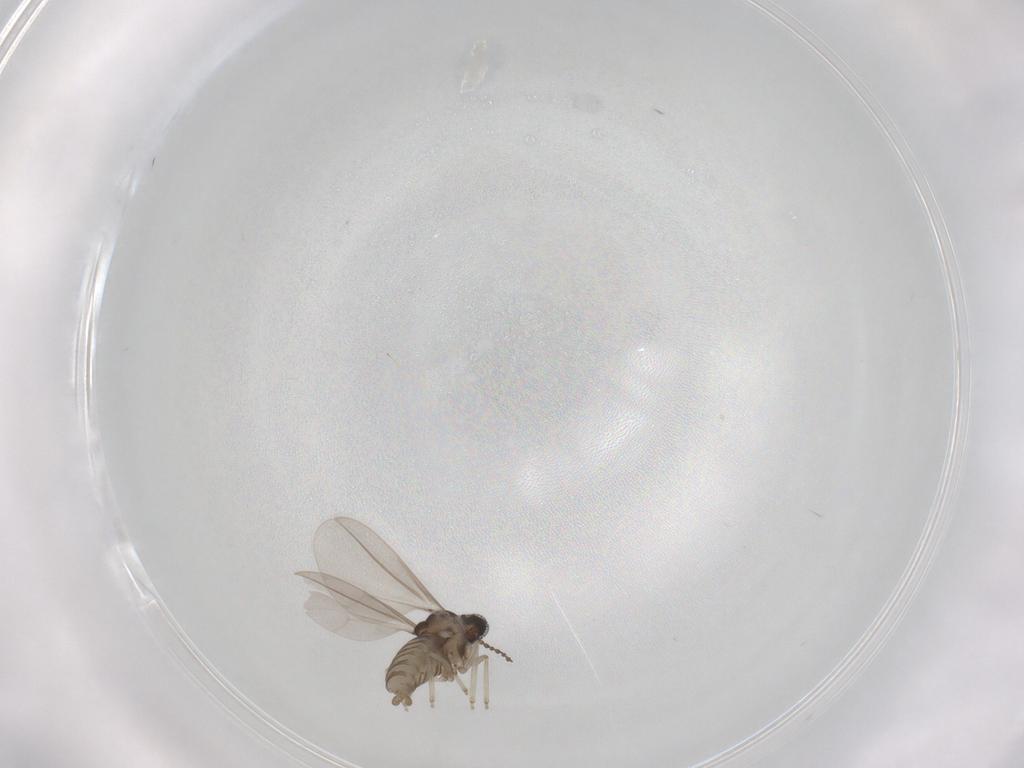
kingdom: Animalia
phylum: Arthropoda
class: Insecta
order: Diptera
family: Cecidomyiidae
